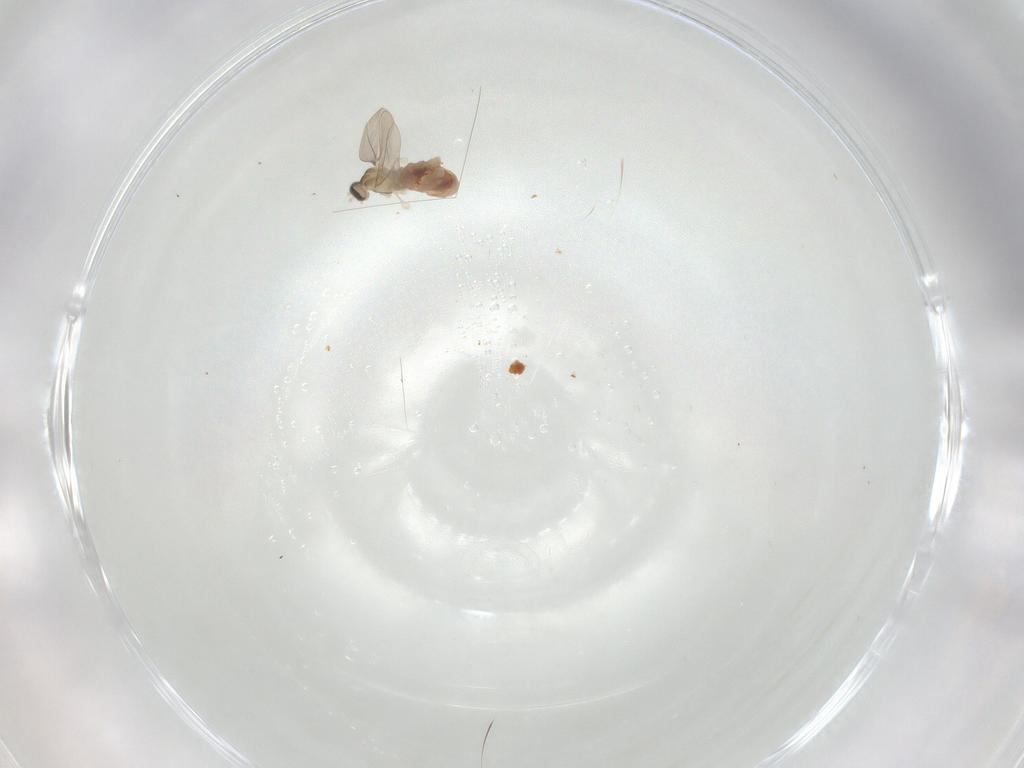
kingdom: Animalia
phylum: Arthropoda
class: Insecta
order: Diptera
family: Cecidomyiidae
